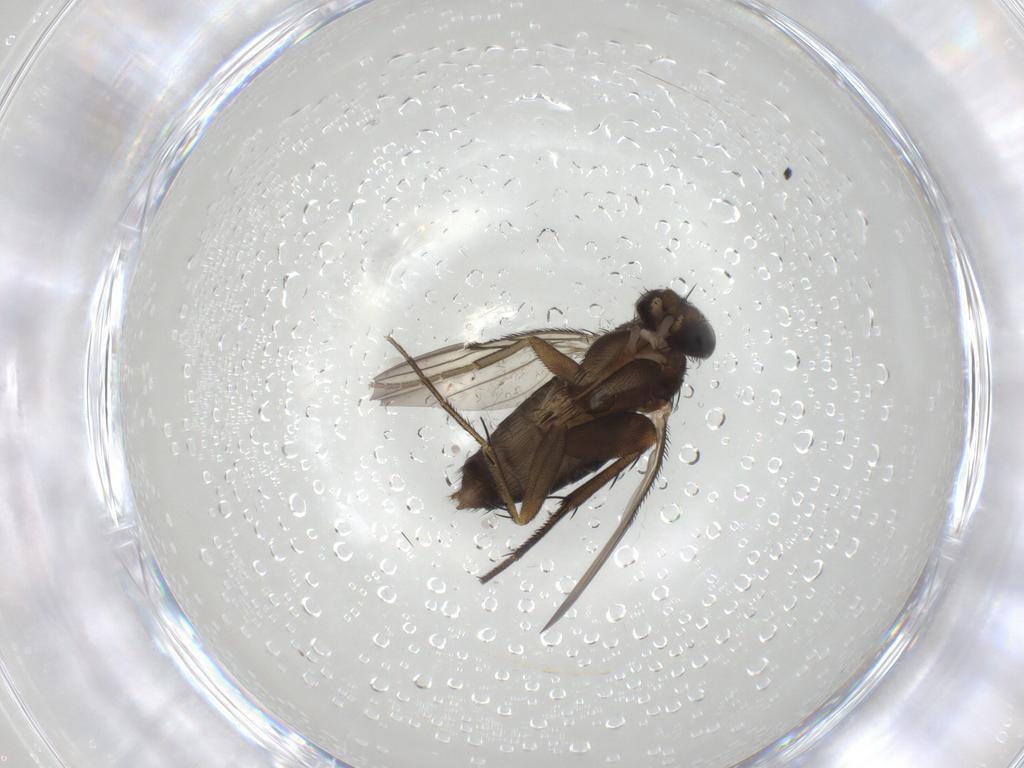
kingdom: Animalia
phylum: Arthropoda
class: Insecta
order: Diptera
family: Phoridae
